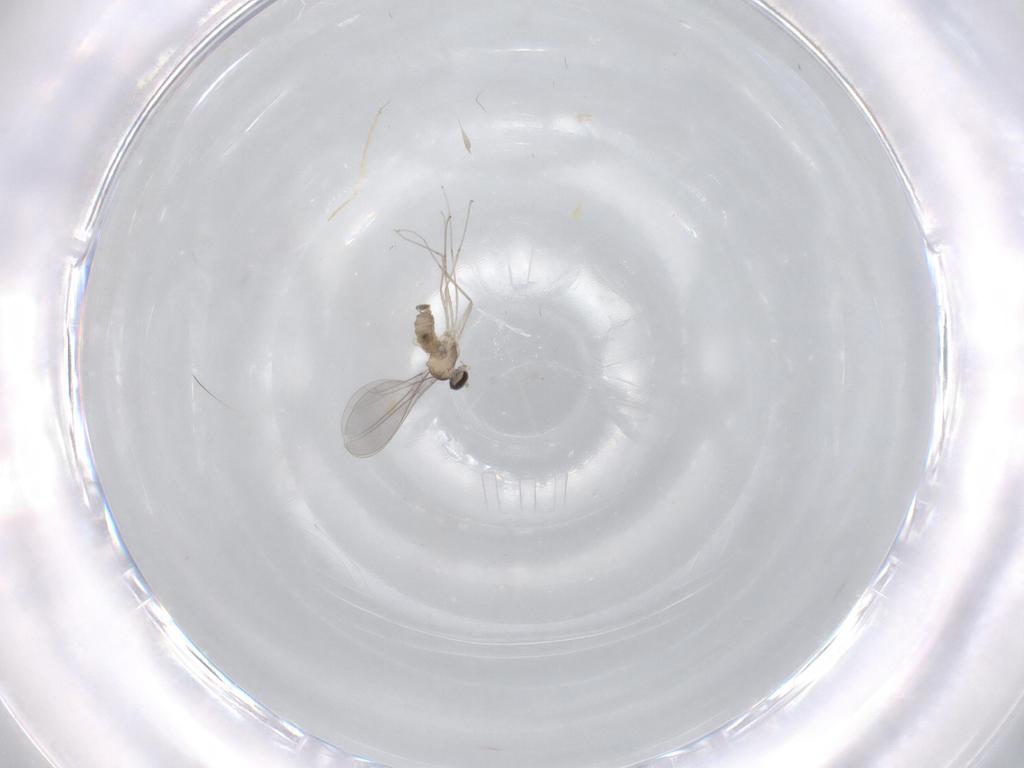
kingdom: Animalia
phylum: Arthropoda
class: Insecta
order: Diptera
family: Cecidomyiidae
